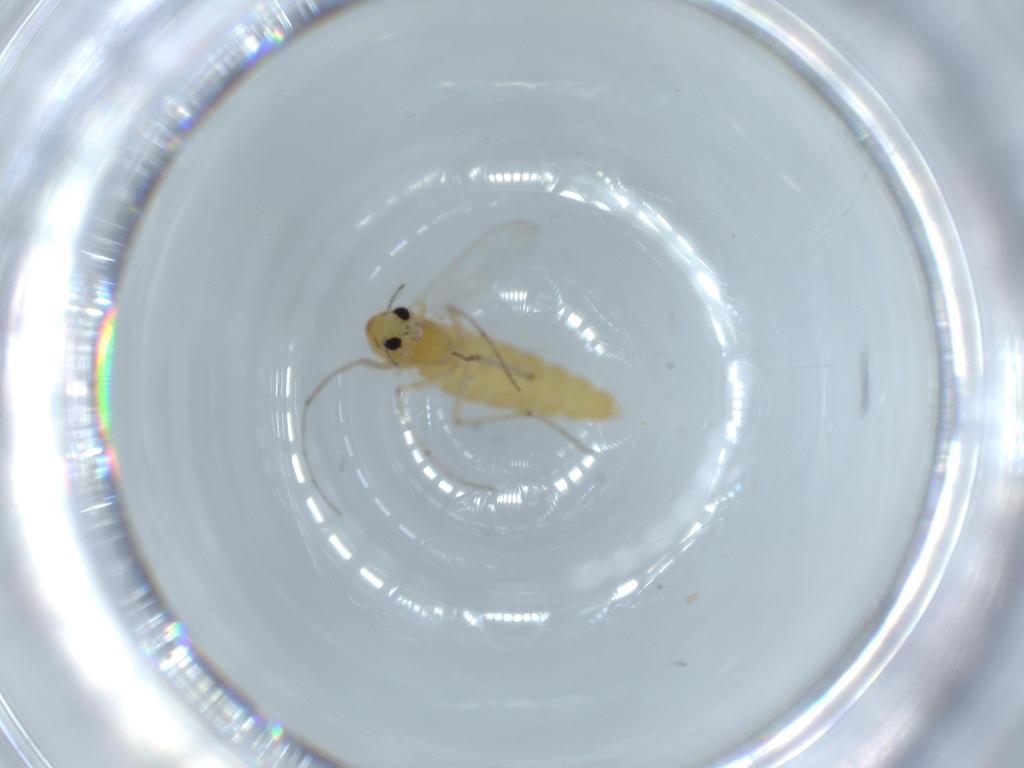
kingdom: Animalia
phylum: Arthropoda
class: Insecta
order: Diptera
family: Chironomidae
